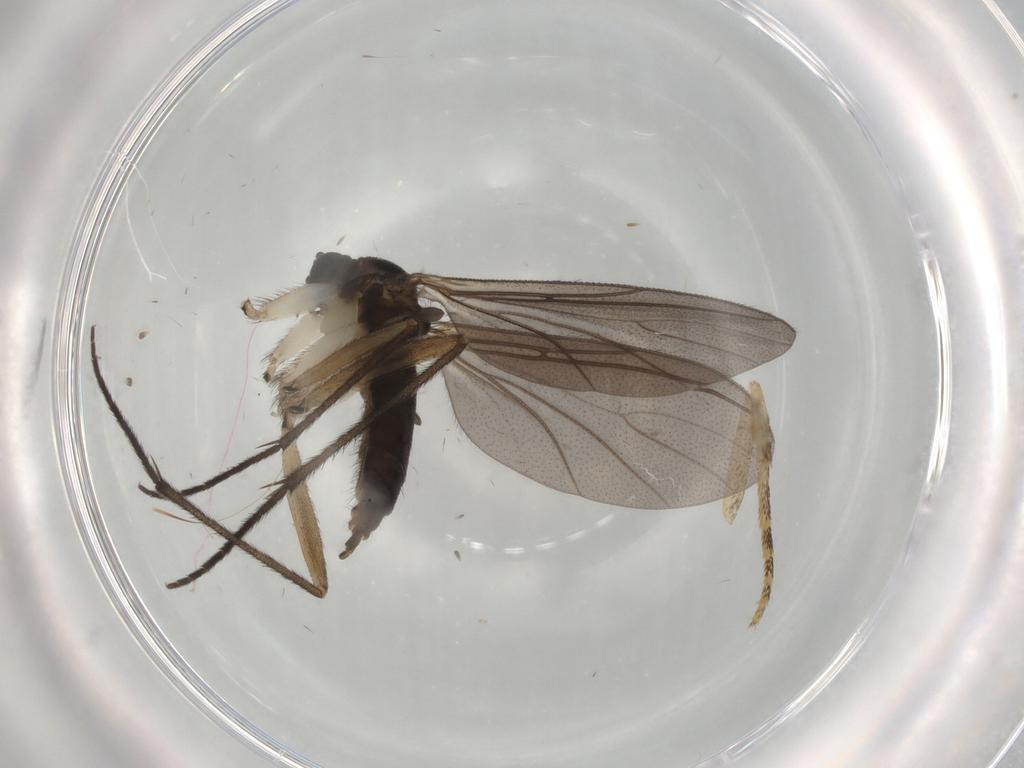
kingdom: Animalia
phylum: Arthropoda
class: Insecta
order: Diptera
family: Sciaridae
